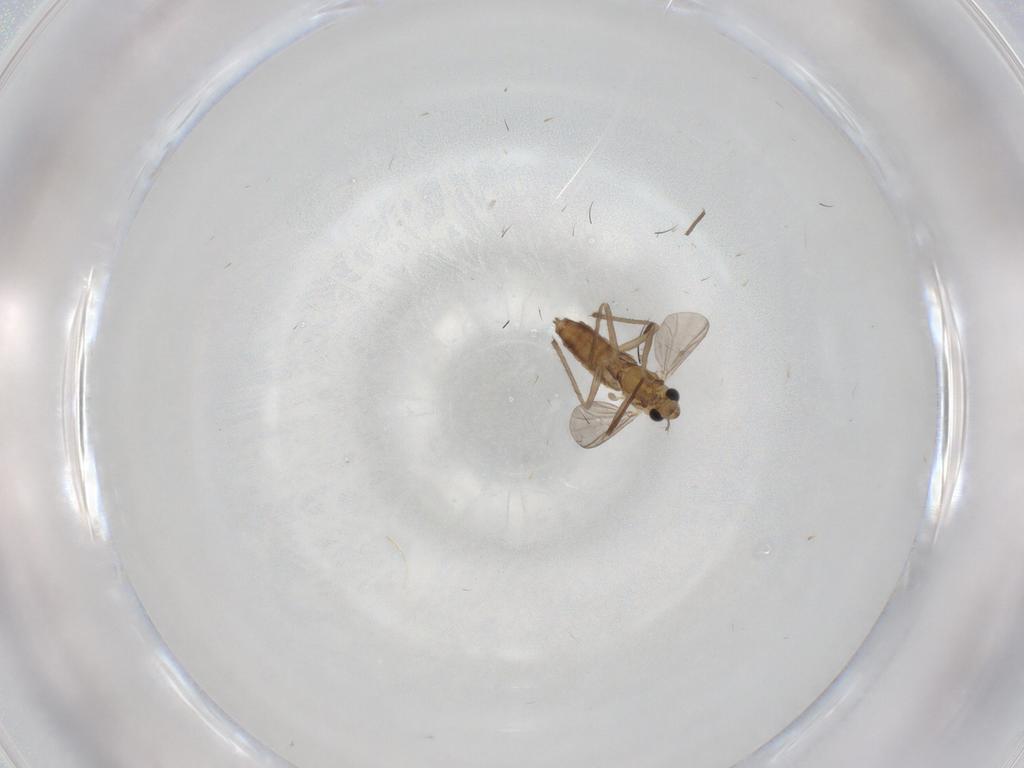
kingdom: Animalia
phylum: Arthropoda
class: Insecta
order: Diptera
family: Chironomidae
